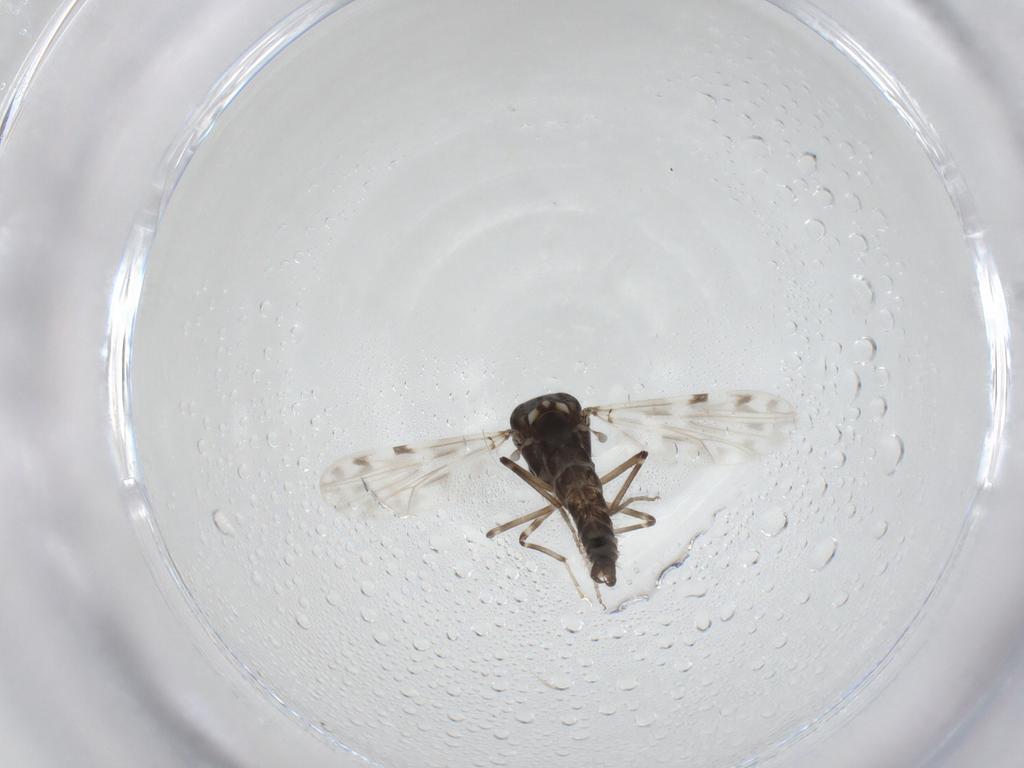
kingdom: Animalia
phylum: Arthropoda
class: Insecta
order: Diptera
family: Ceratopogonidae
